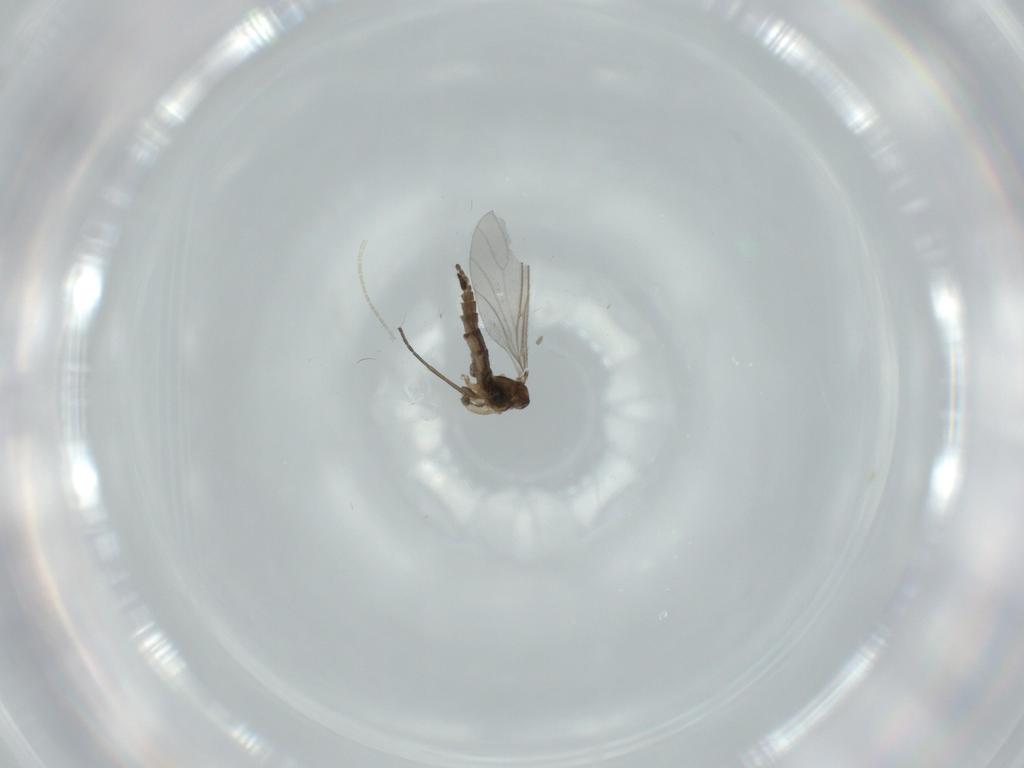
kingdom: Animalia
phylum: Arthropoda
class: Insecta
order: Diptera
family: Sciaridae
